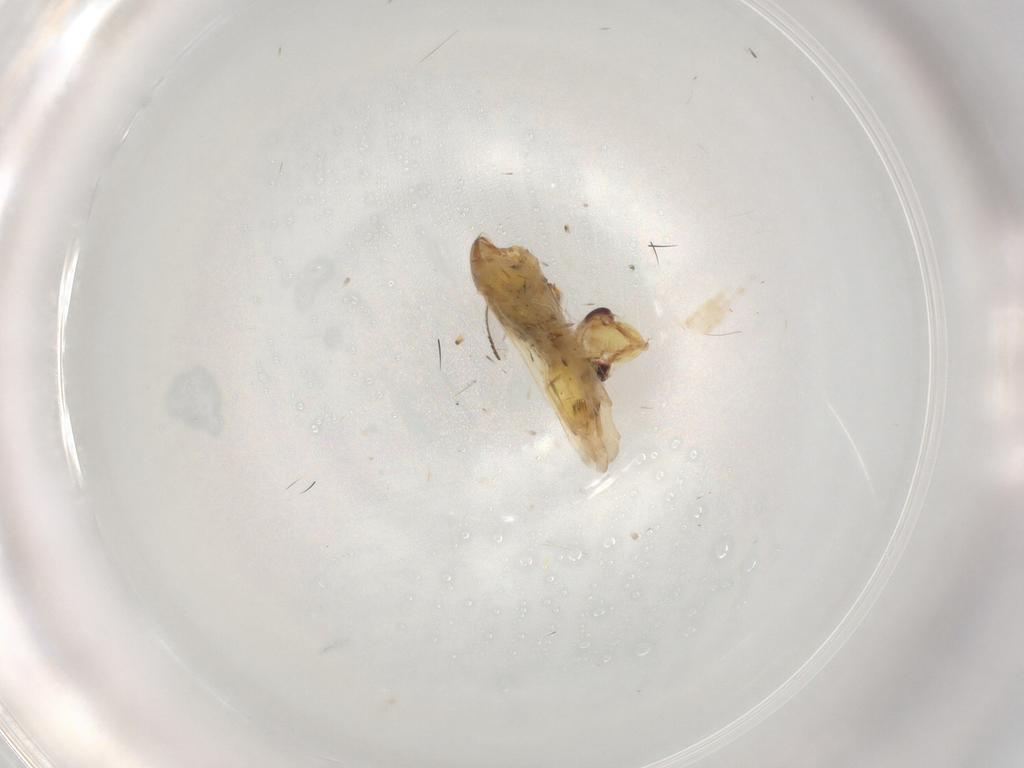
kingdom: Animalia
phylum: Arthropoda
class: Insecta
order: Hemiptera
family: Cicadellidae
